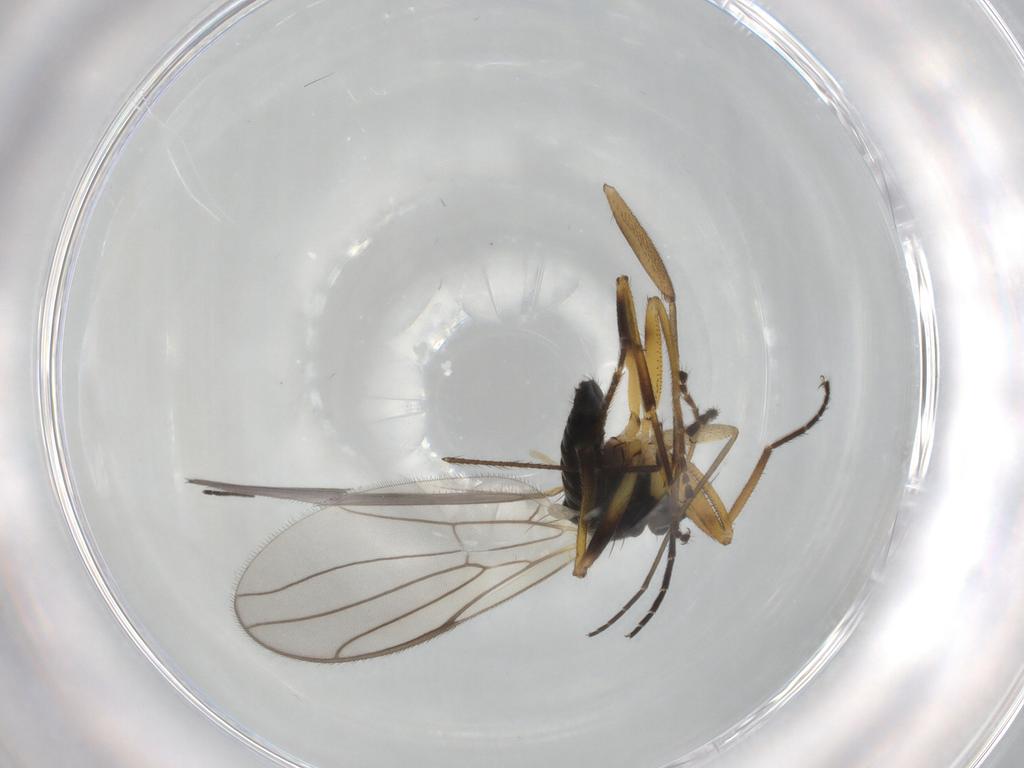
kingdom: Animalia
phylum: Arthropoda
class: Insecta
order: Diptera
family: Hybotidae
